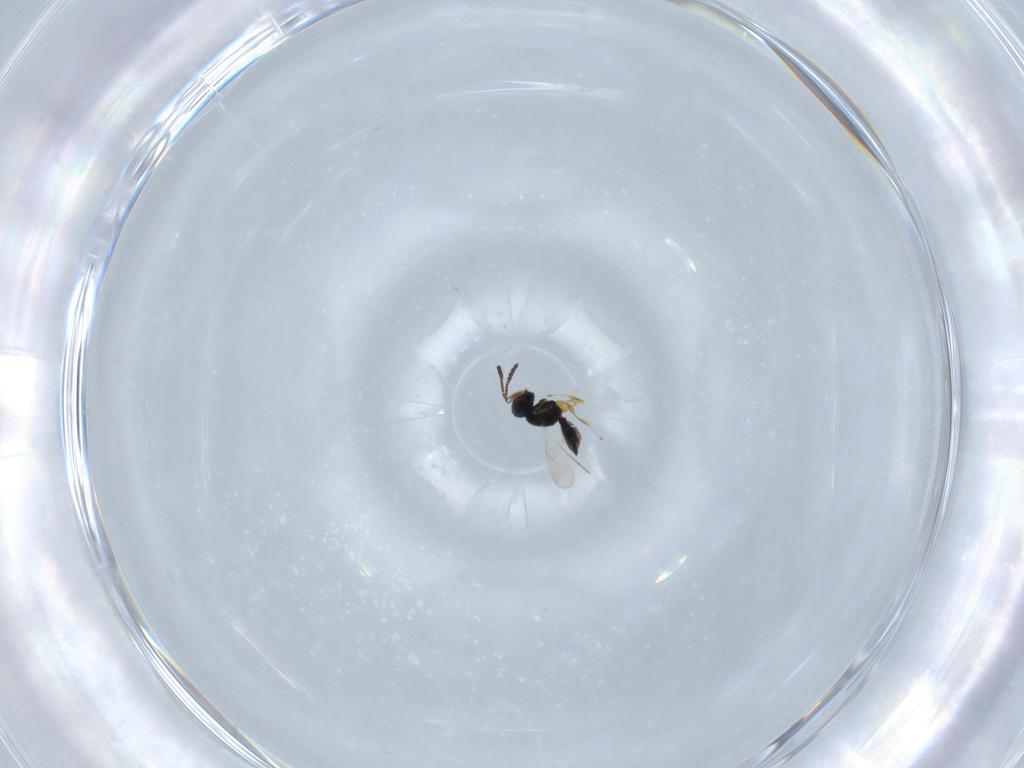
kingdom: Animalia
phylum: Arthropoda
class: Insecta
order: Hymenoptera
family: Scelionidae
